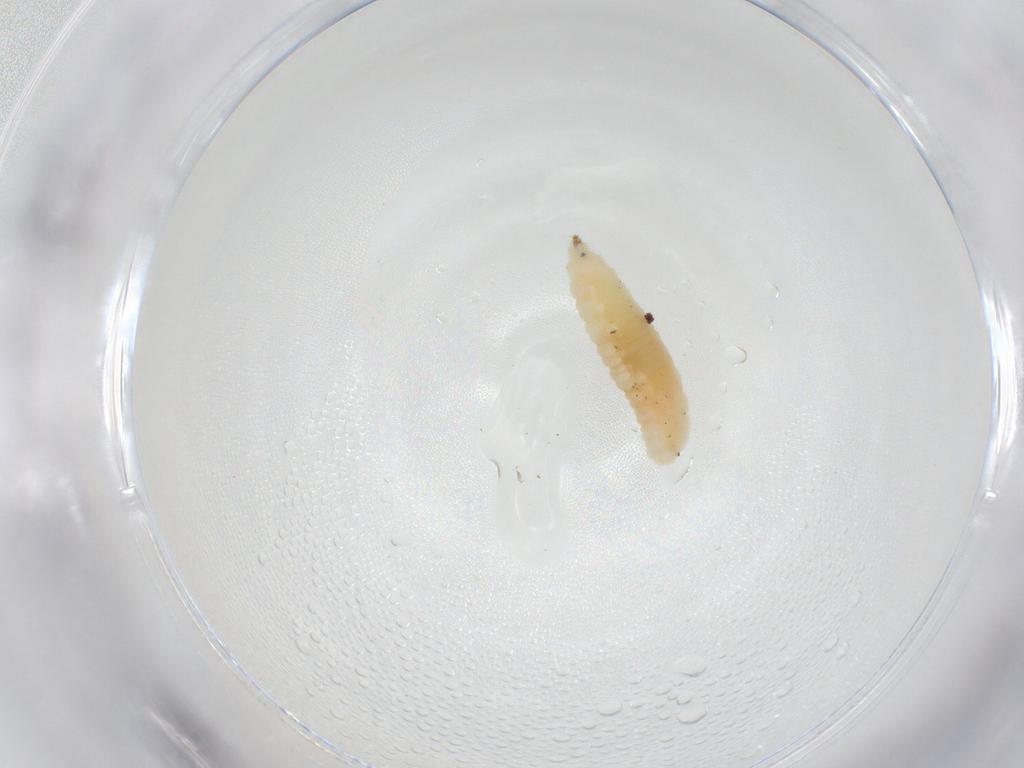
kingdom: Animalia
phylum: Arthropoda
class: Insecta
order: Diptera
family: Cecidomyiidae
